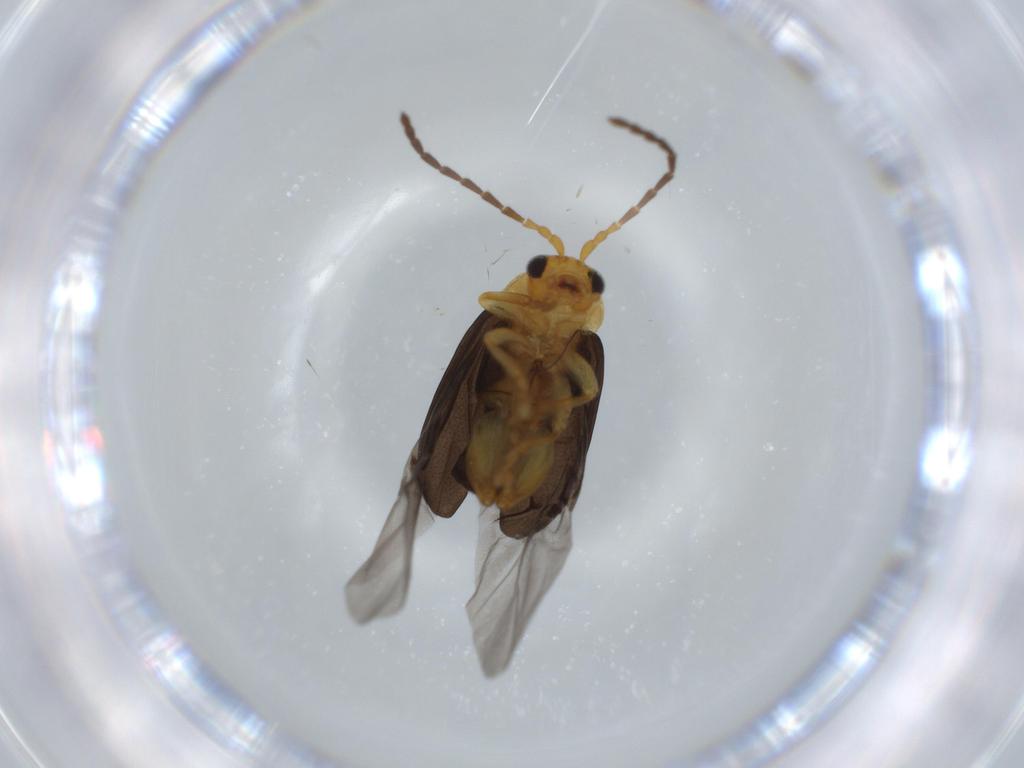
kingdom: Animalia
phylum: Arthropoda
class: Insecta
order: Coleoptera
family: Chrysomelidae
